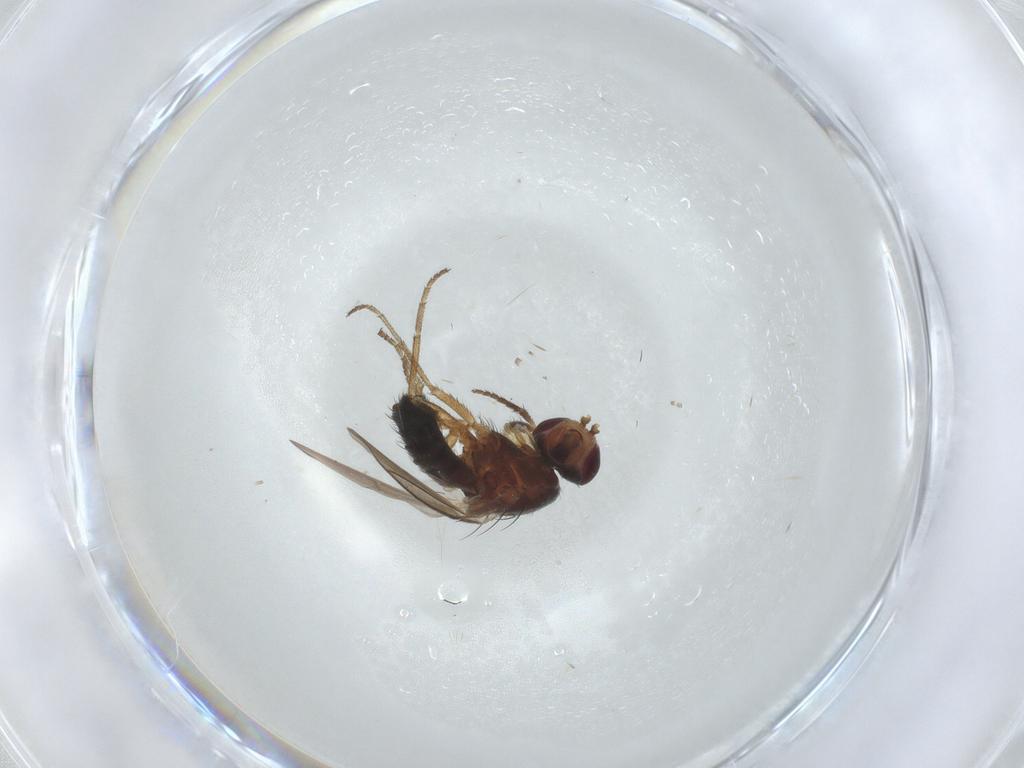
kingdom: Animalia
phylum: Arthropoda
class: Insecta
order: Diptera
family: Heleomyzidae
